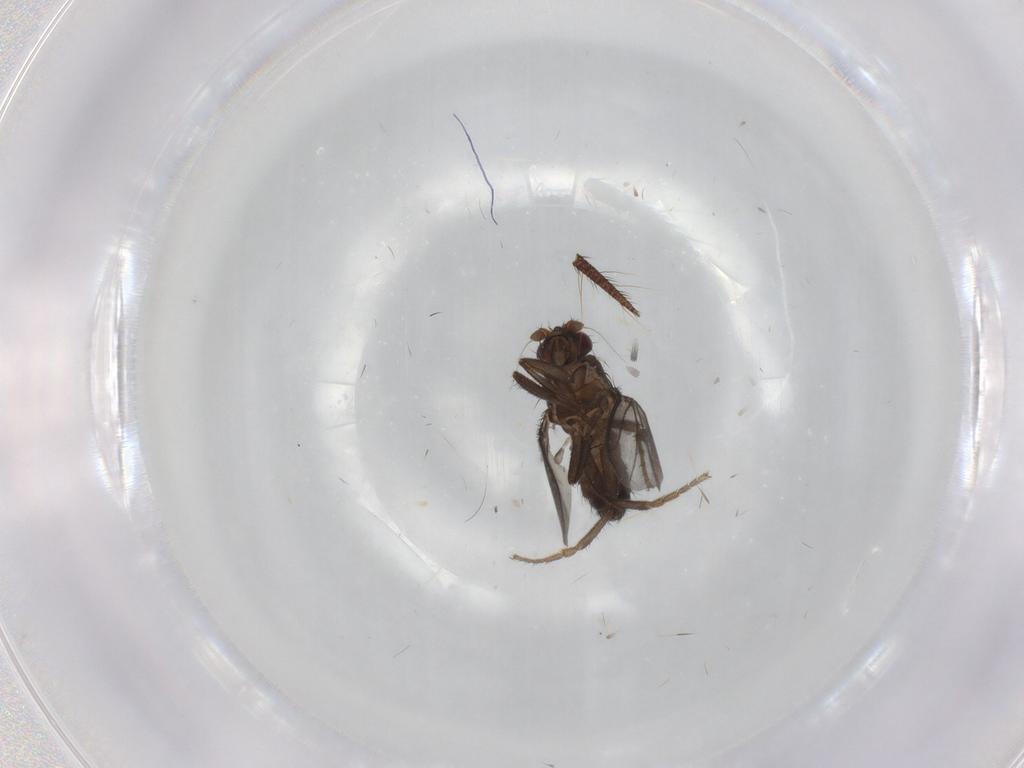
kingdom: Animalia
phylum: Arthropoda
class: Insecta
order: Diptera
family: Sphaeroceridae
